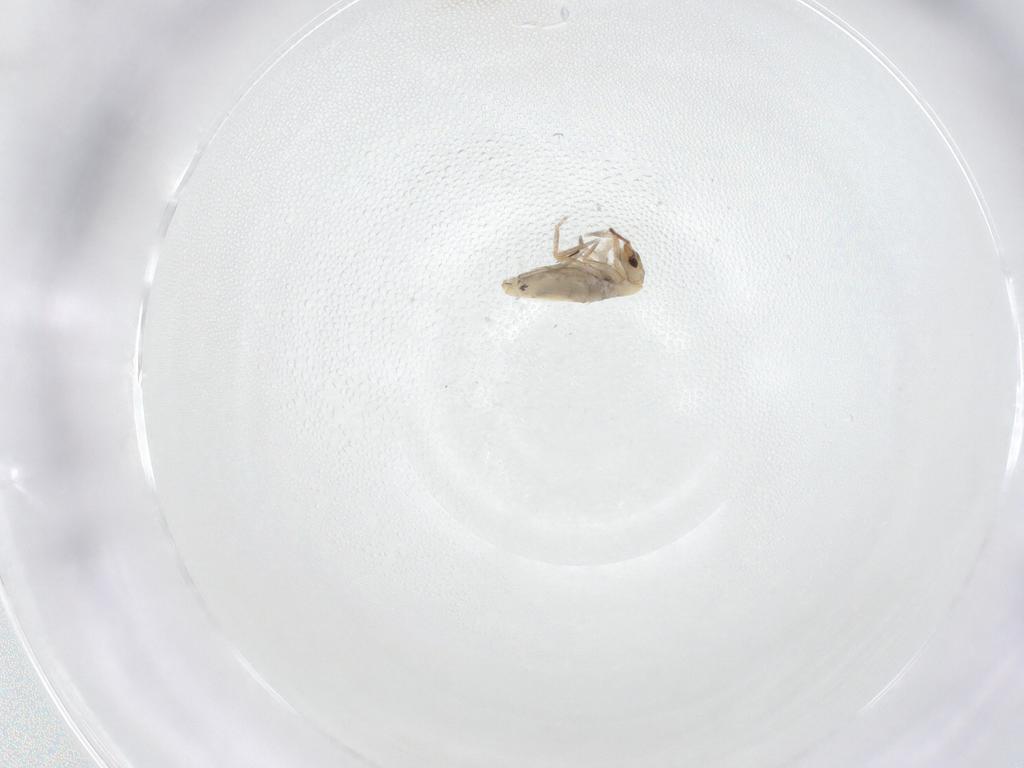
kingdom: Animalia
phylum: Arthropoda
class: Collembola
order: Entomobryomorpha
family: Entomobryidae
